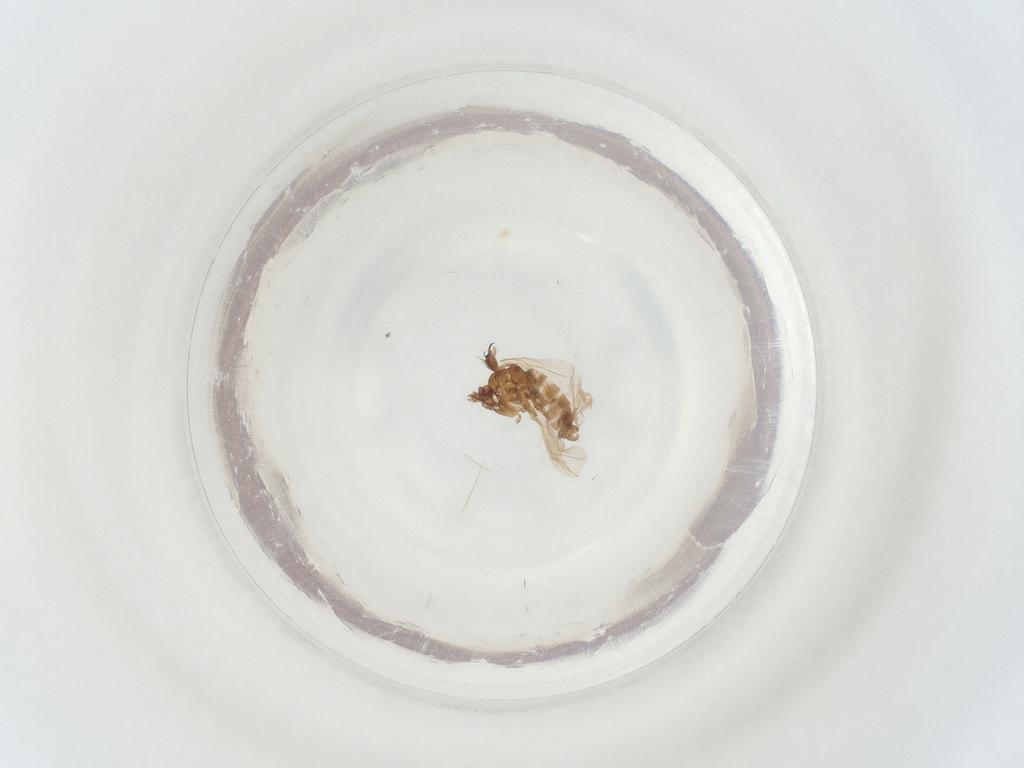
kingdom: Animalia
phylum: Arthropoda
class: Insecta
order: Diptera
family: Sciaridae
